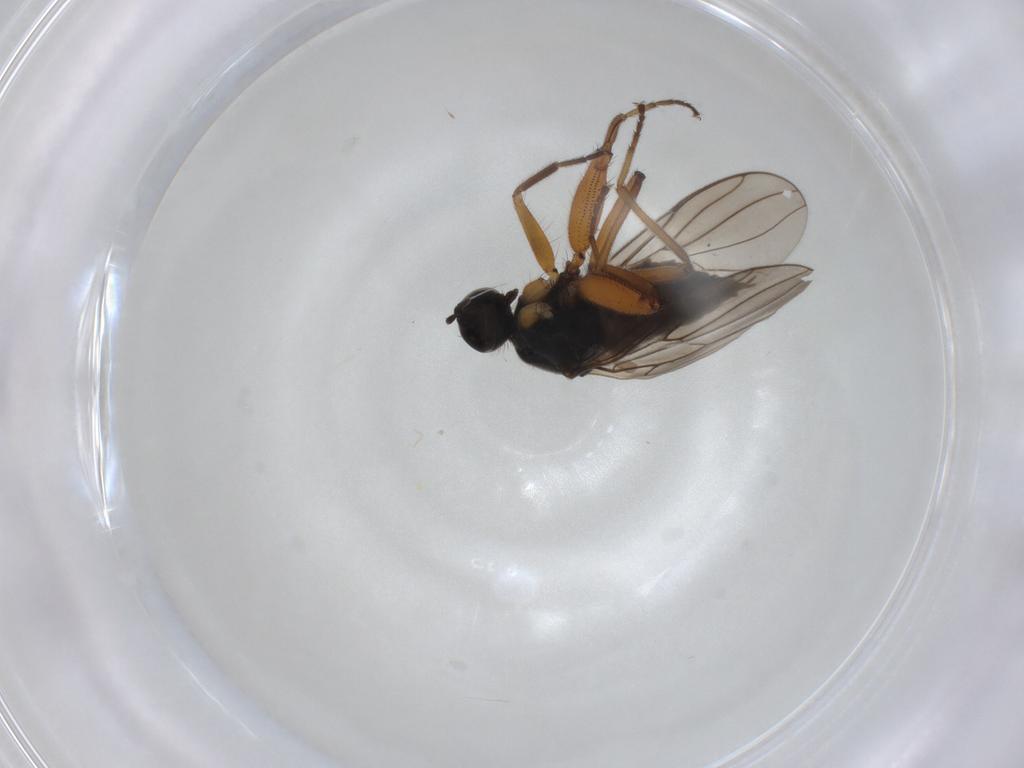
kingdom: Animalia
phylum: Arthropoda
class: Insecta
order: Diptera
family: Hybotidae
